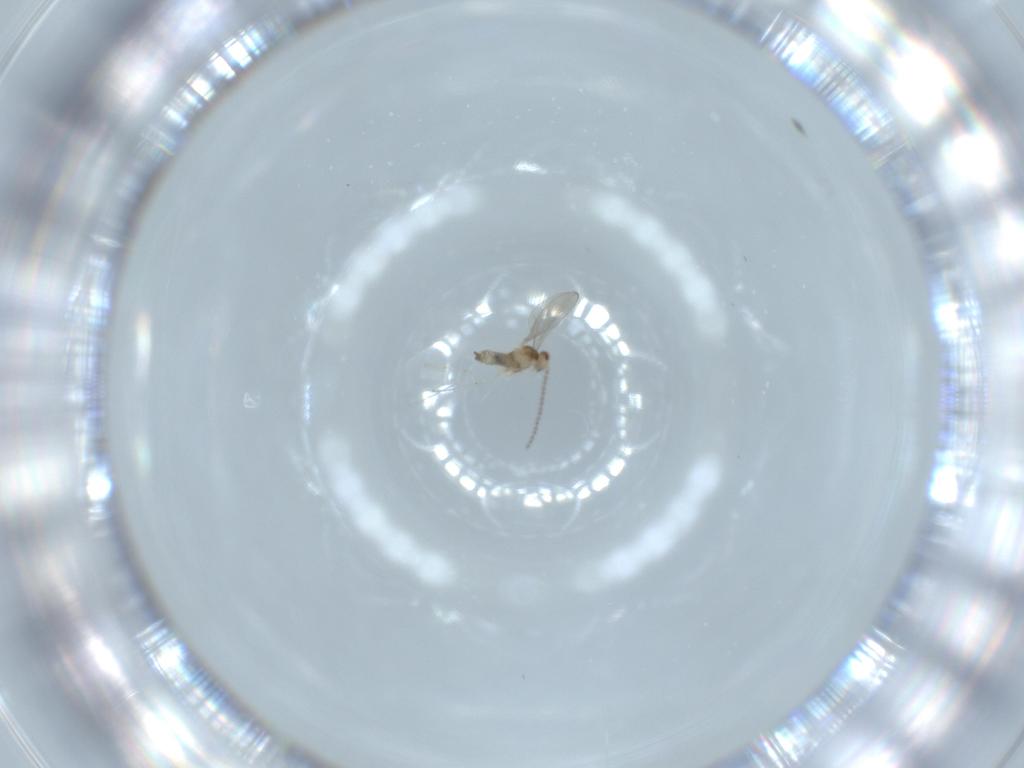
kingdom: Animalia
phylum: Arthropoda
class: Insecta
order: Diptera
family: Cecidomyiidae
